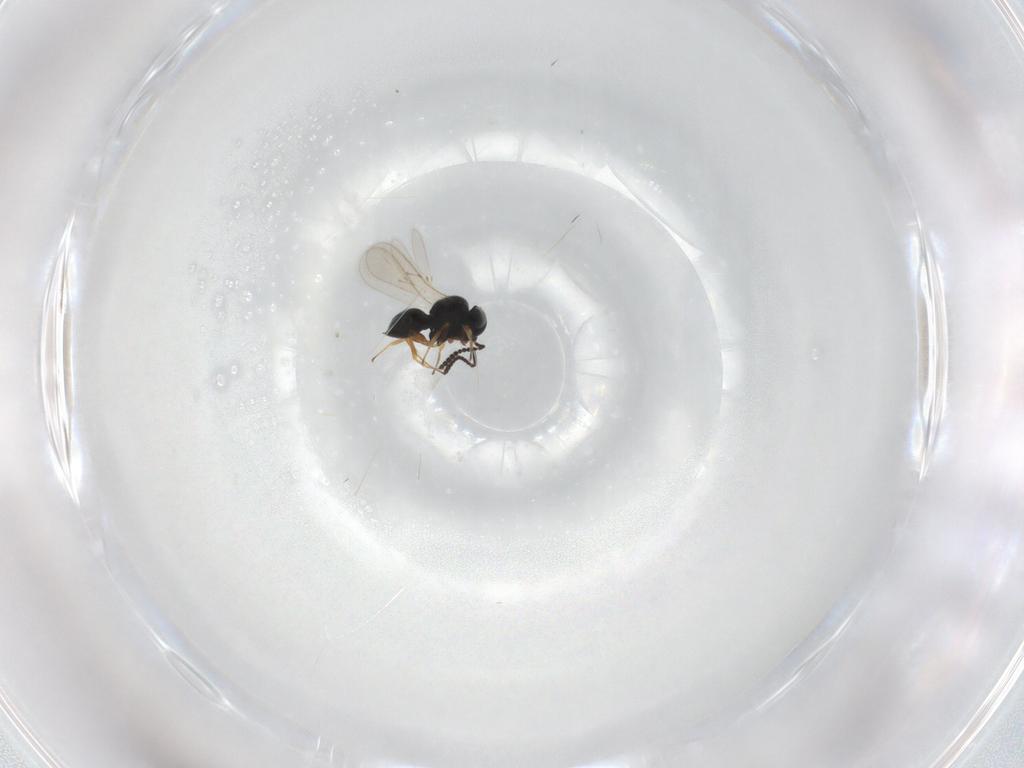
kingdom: Animalia
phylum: Arthropoda
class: Insecta
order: Hymenoptera
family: Scelionidae
